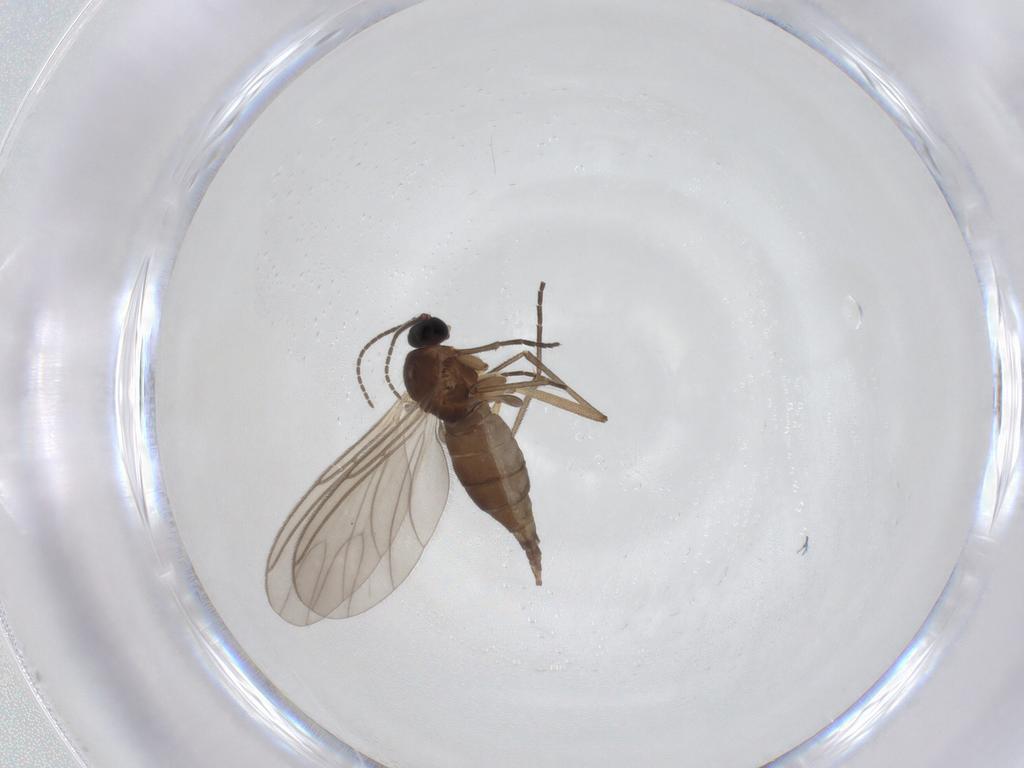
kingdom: Animalia
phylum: Arthropoda
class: Insecta
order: Diptera
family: Sciaridae
